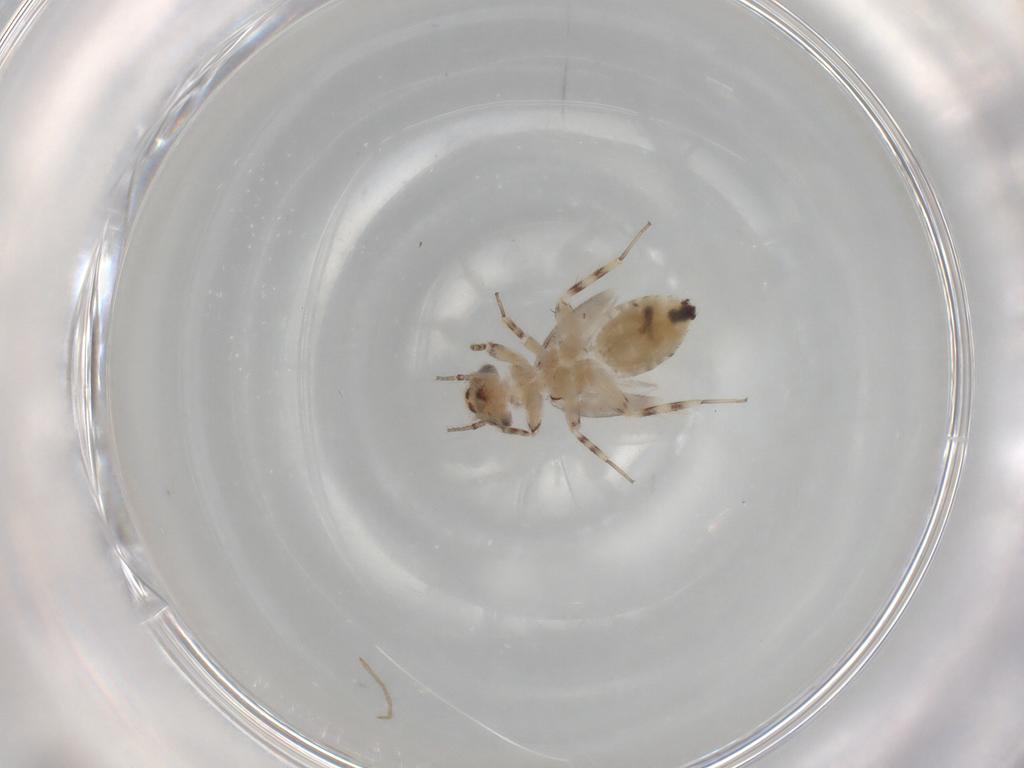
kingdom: Animalia
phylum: Arthropoda
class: Insecta
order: Psocodea
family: Lepidopsocidae
